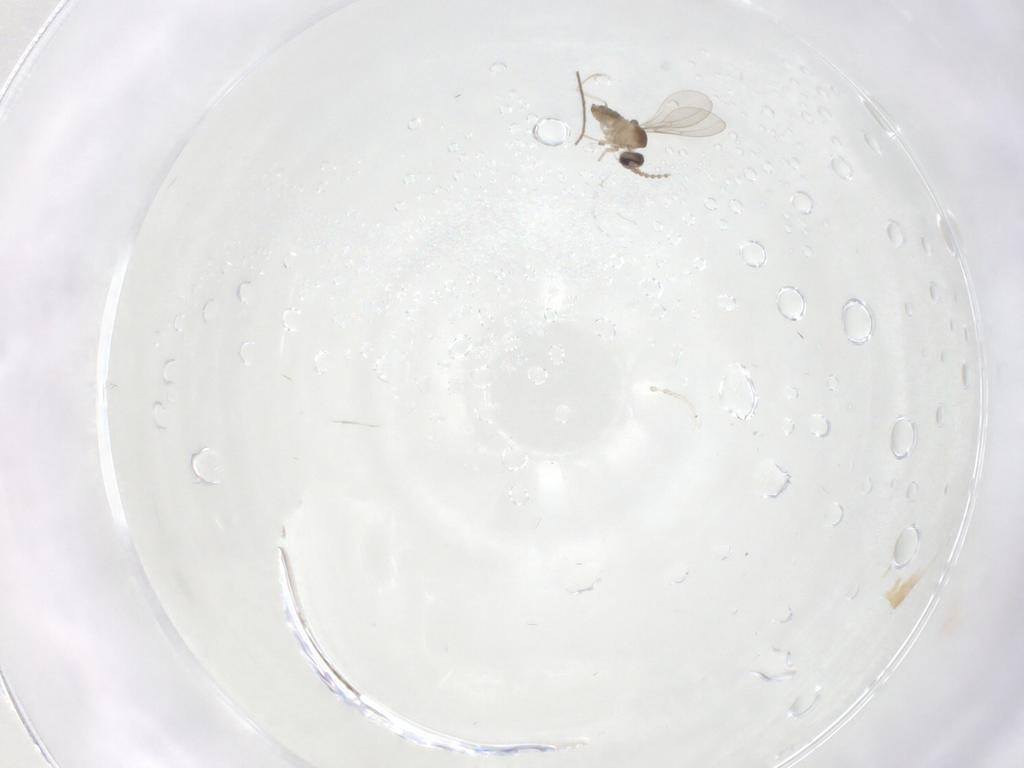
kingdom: Animalia
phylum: Arthropoda
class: Insecta
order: Diptera
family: Cecidomyiidae
